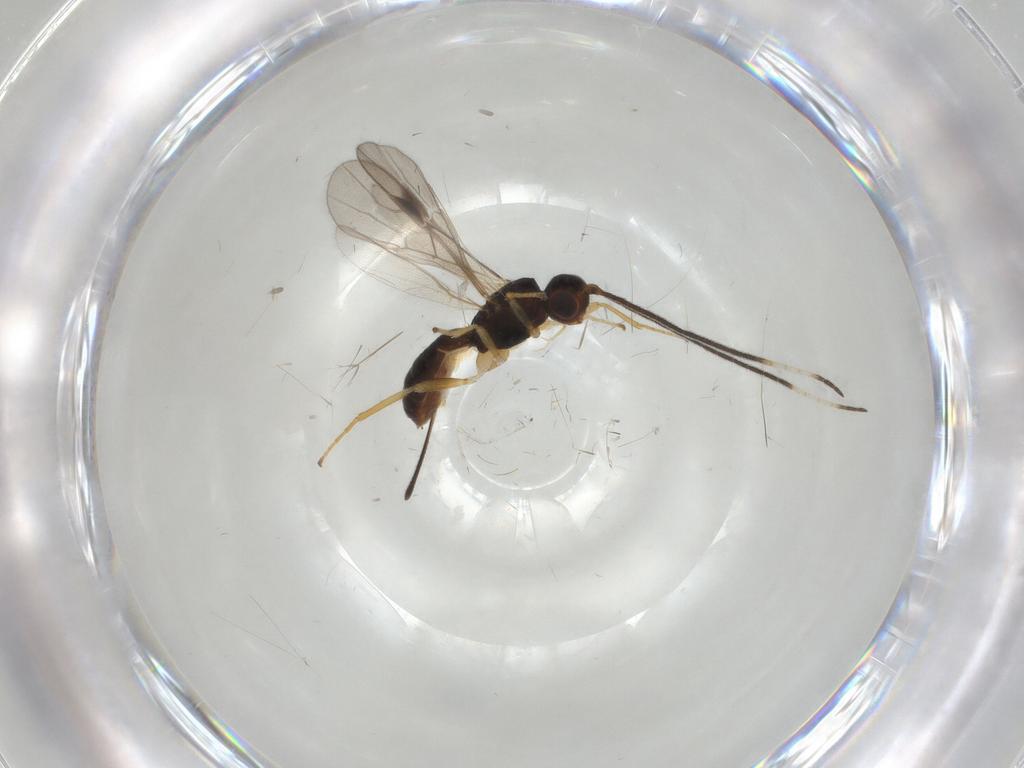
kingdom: Animalia
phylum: Arthropoda
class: Insecta
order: Hymenoptera
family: Braconidae
